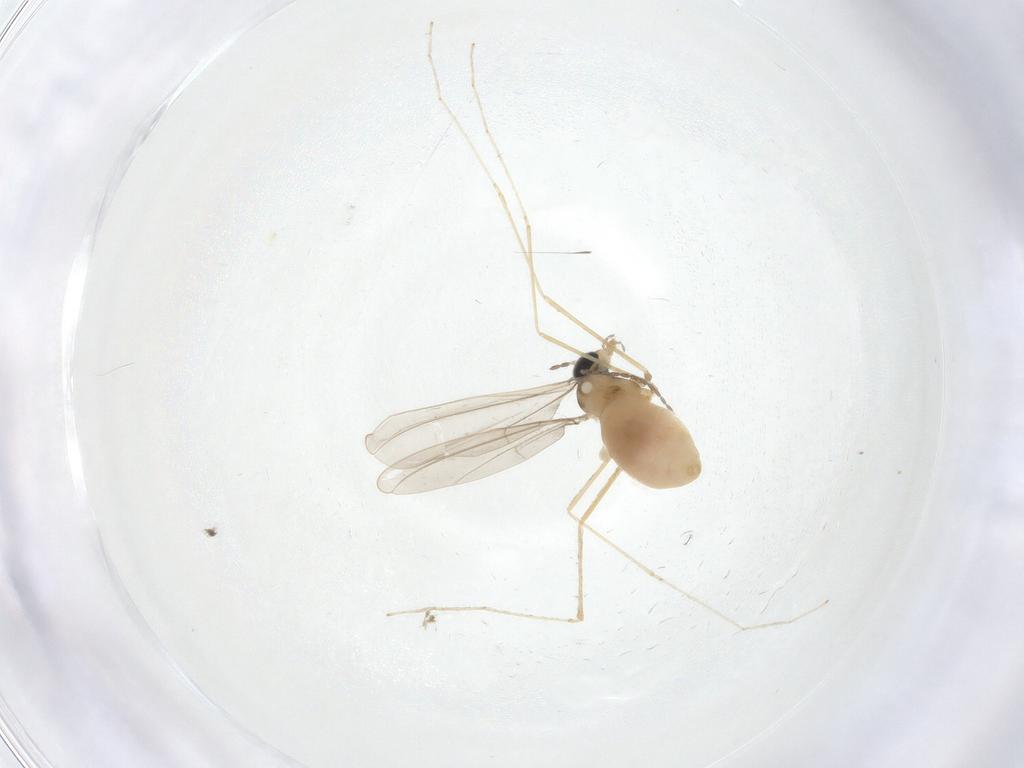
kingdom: Animalia
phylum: Arthropoda
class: Insecta
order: Diptera
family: Cecidomyiidae
